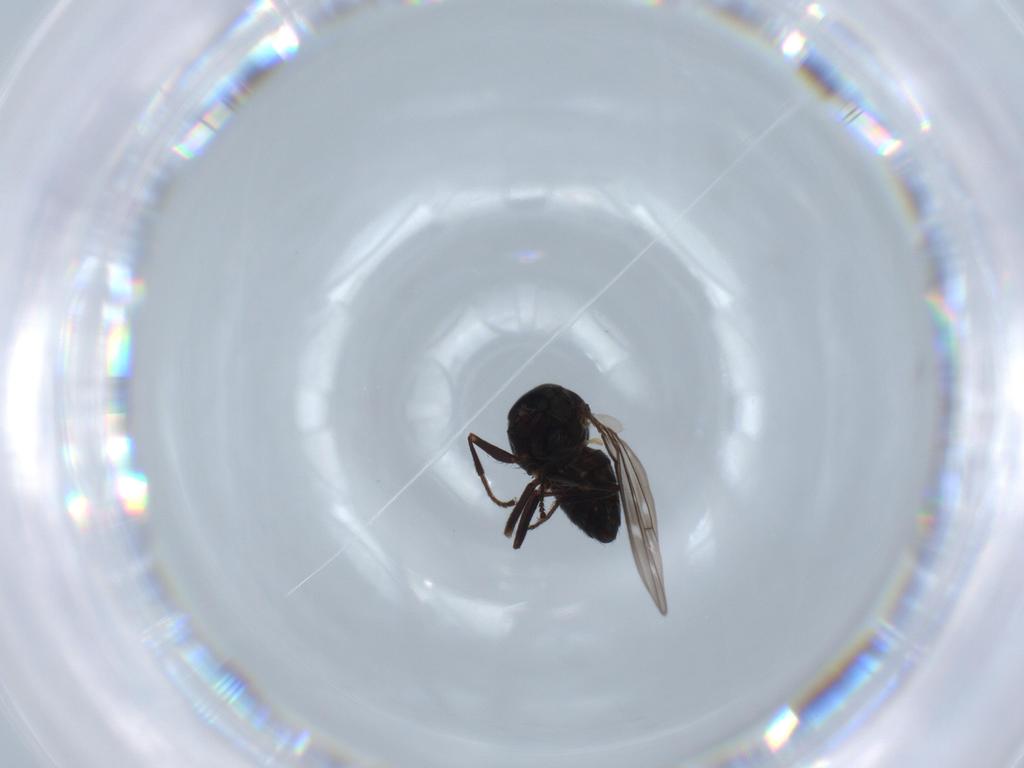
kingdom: Animalia
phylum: Arthropoda
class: Insecta
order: Diptera
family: Ephydridae
